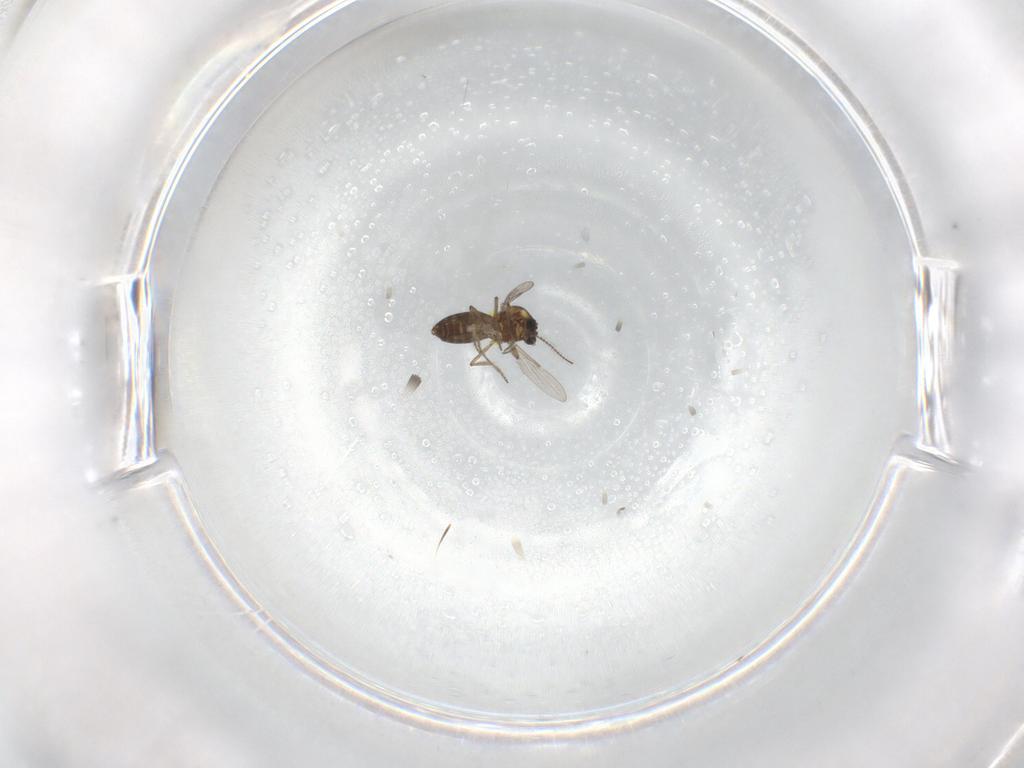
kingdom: Animalia
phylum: Arthropoda
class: Insecta
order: Diptera
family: Ceratopogonidae
